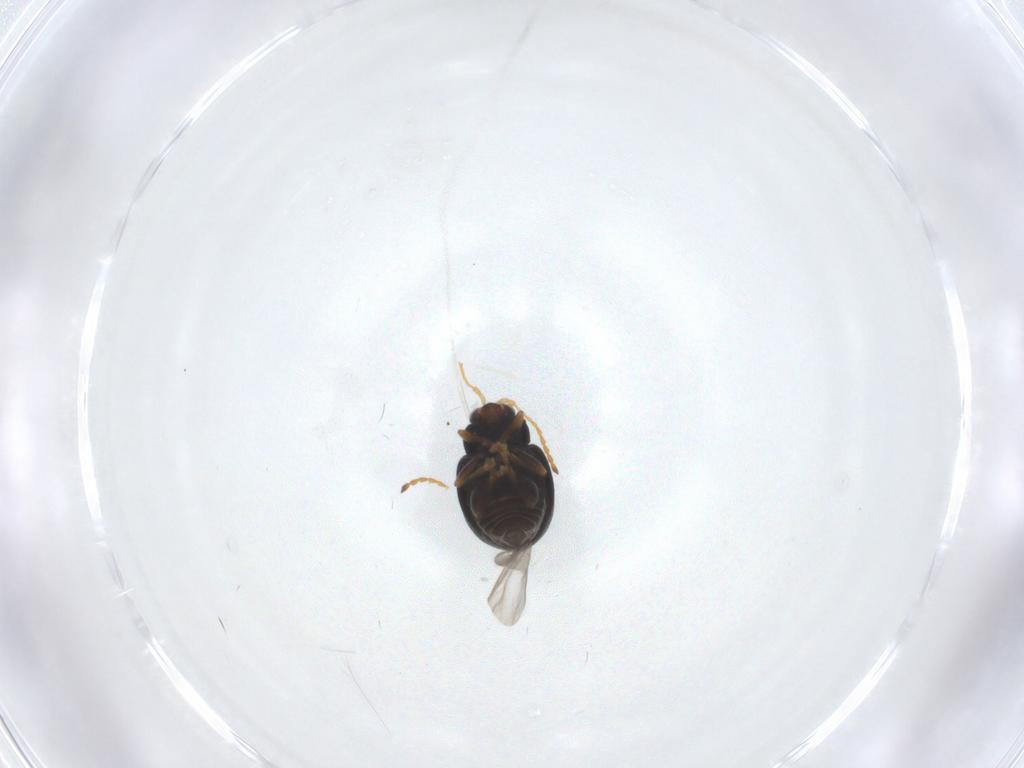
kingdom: Animalia
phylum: Arthropoda
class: Insecta
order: Coleoptera
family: Chrysomelidae
